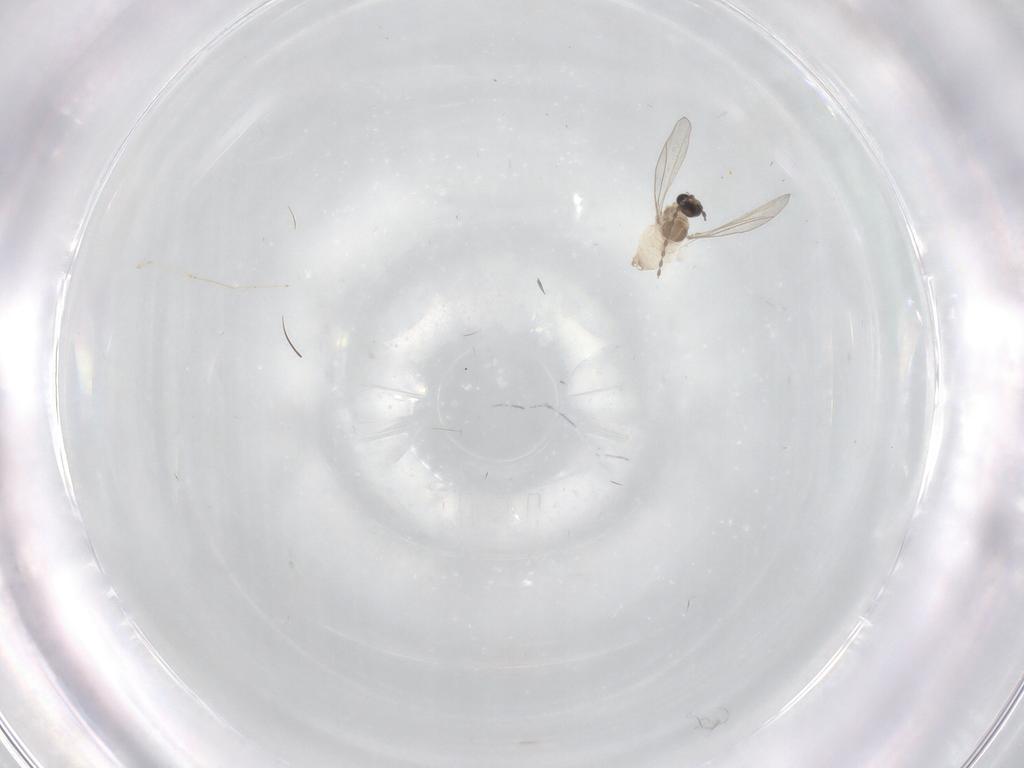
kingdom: Animalia
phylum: Arthropoda
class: Insecta
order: Diptera
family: Cecidomyiidae
